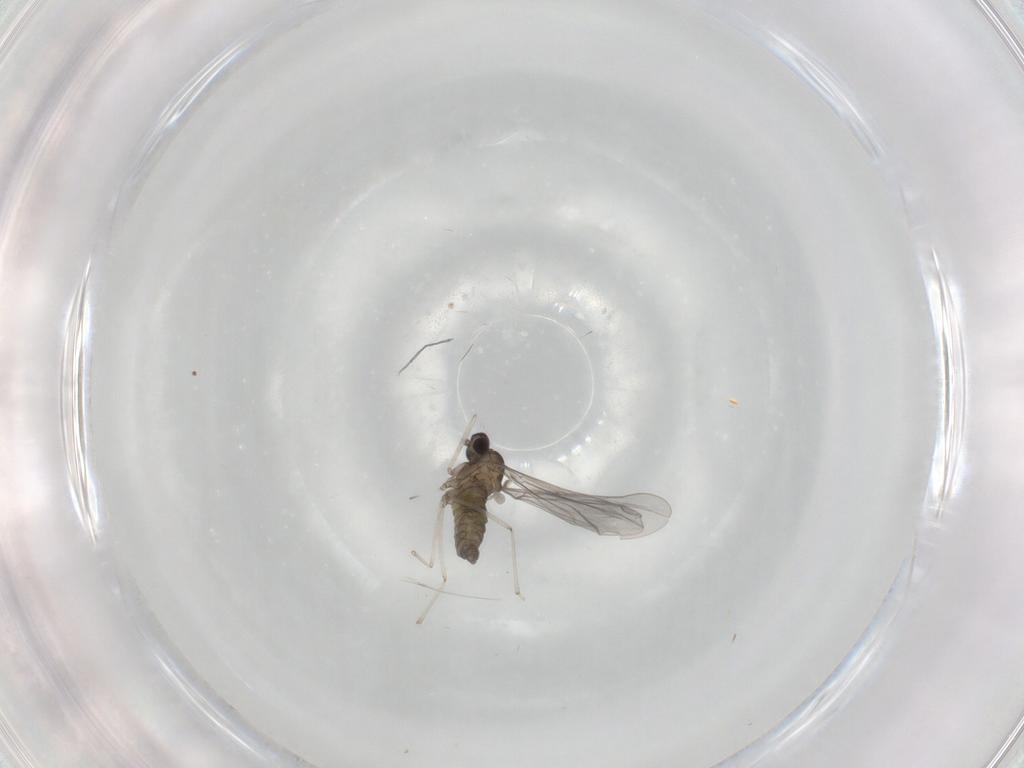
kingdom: Animalia
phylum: Arthropoda
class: Insecta
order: Diptera
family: Cecidomyiidae
